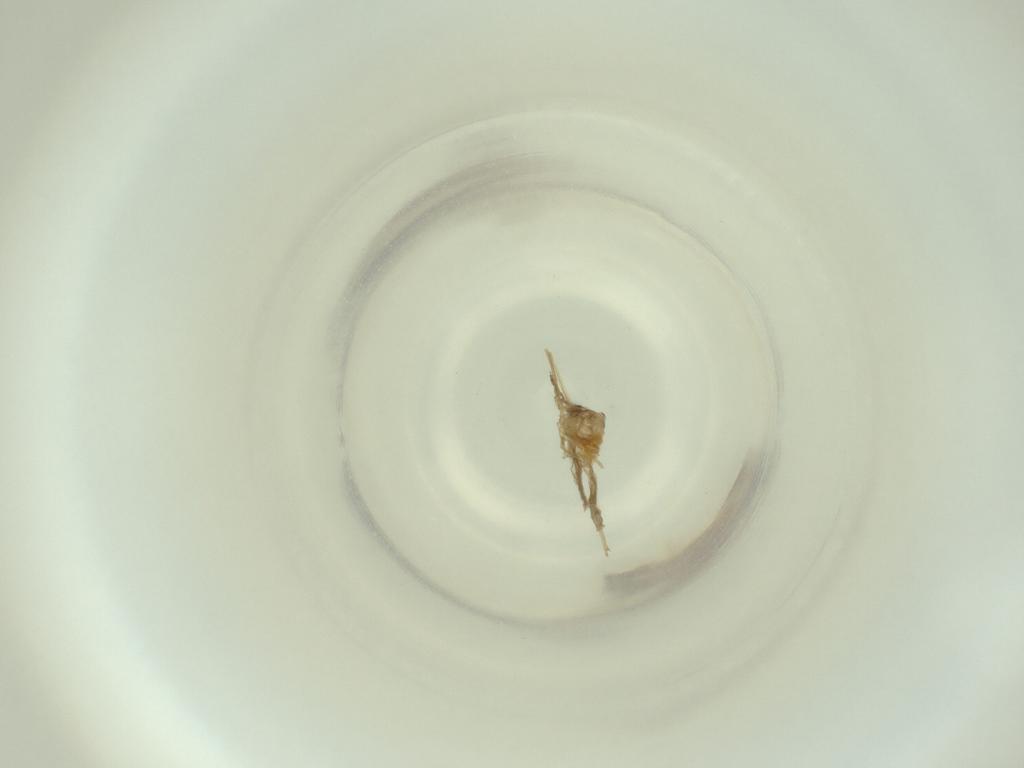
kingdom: Animalia
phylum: Arthropoda
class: Insecta
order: Diptera
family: Cecidomyiidae
